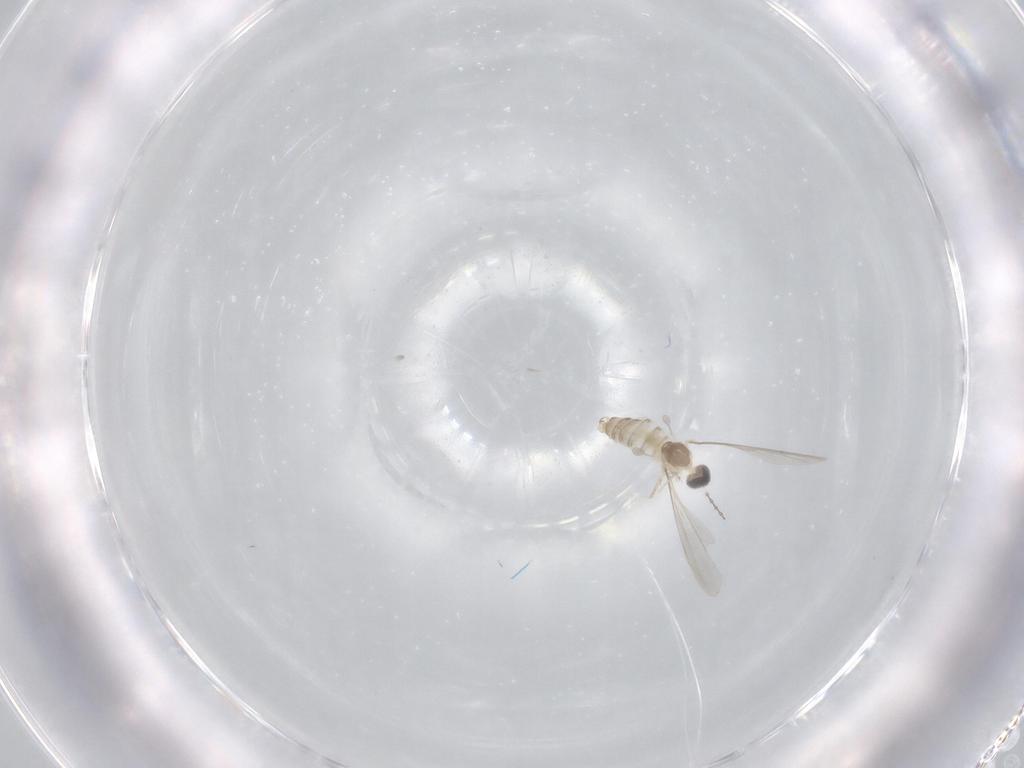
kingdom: Animalia
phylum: Arthropoda
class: Insecta
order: Diptera
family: Cecidomyiidae
